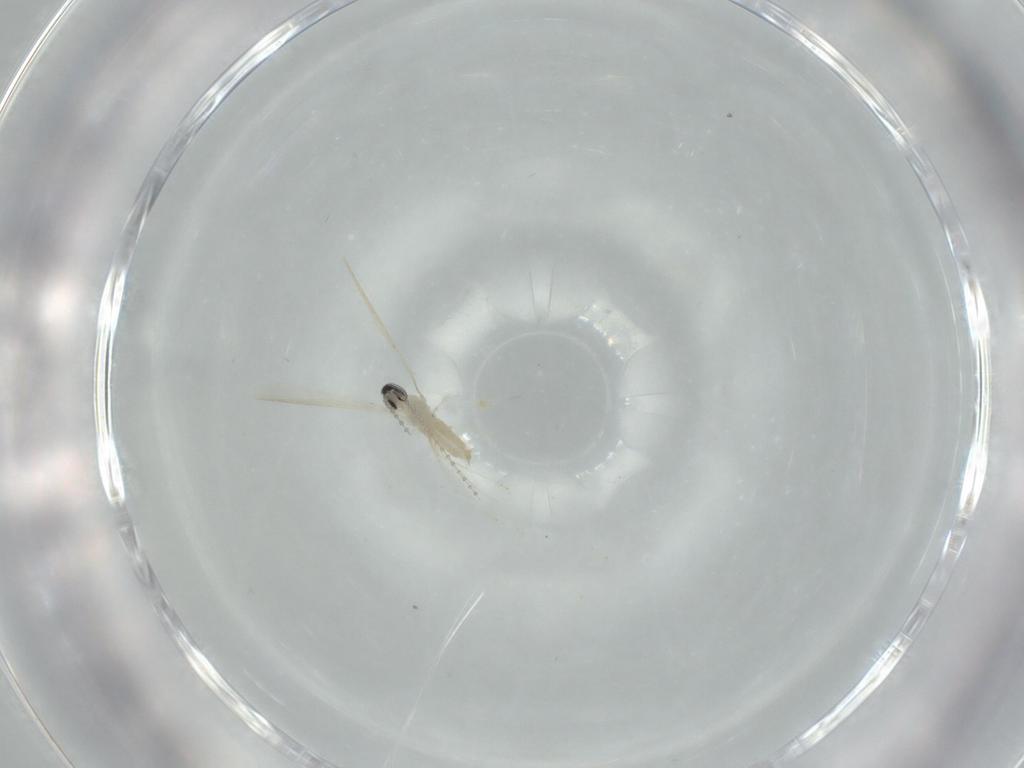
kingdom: Animalia
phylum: Arthropoda
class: Insecta
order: Diptera
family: Cecidomyiidae
